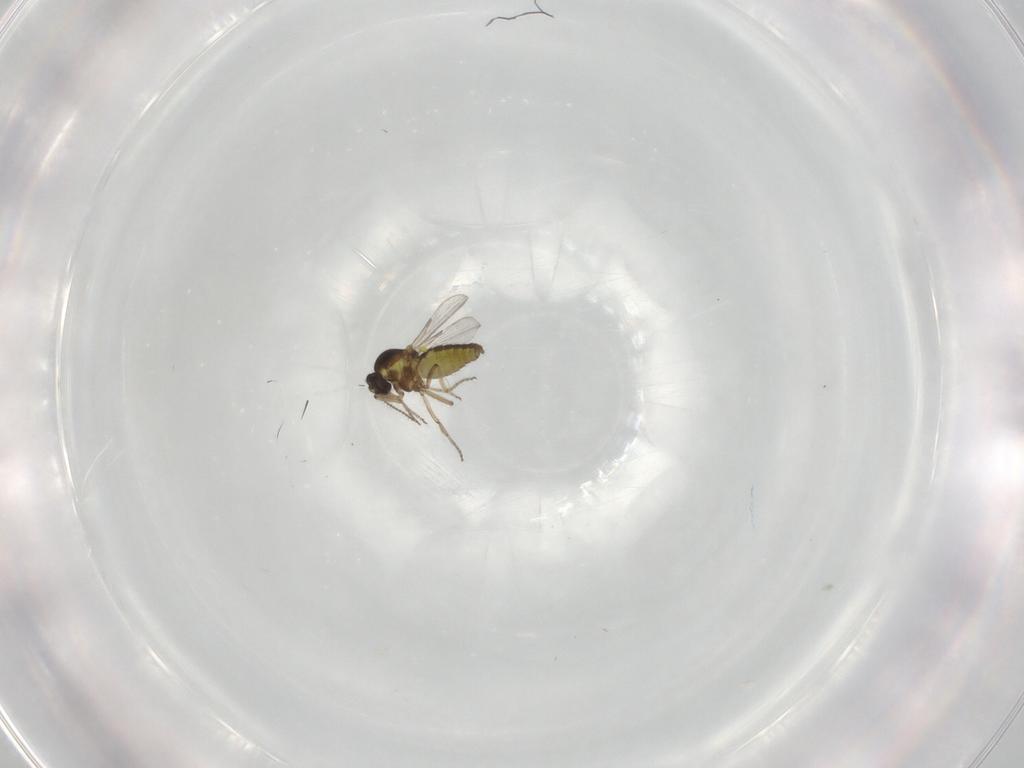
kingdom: Animalia
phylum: Arthropoda
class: Insecta
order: Diptera
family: Ceratopogonidae
